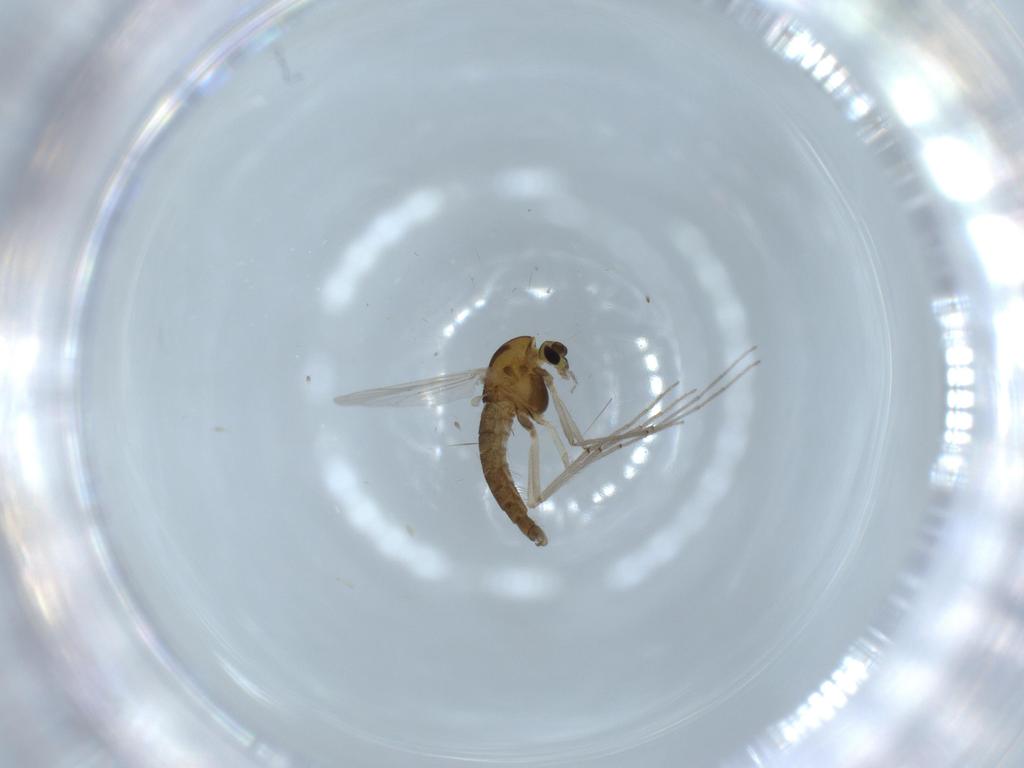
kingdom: Animalia
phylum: Arthropoda
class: Insecta
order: Diptera
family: Chironomidae
